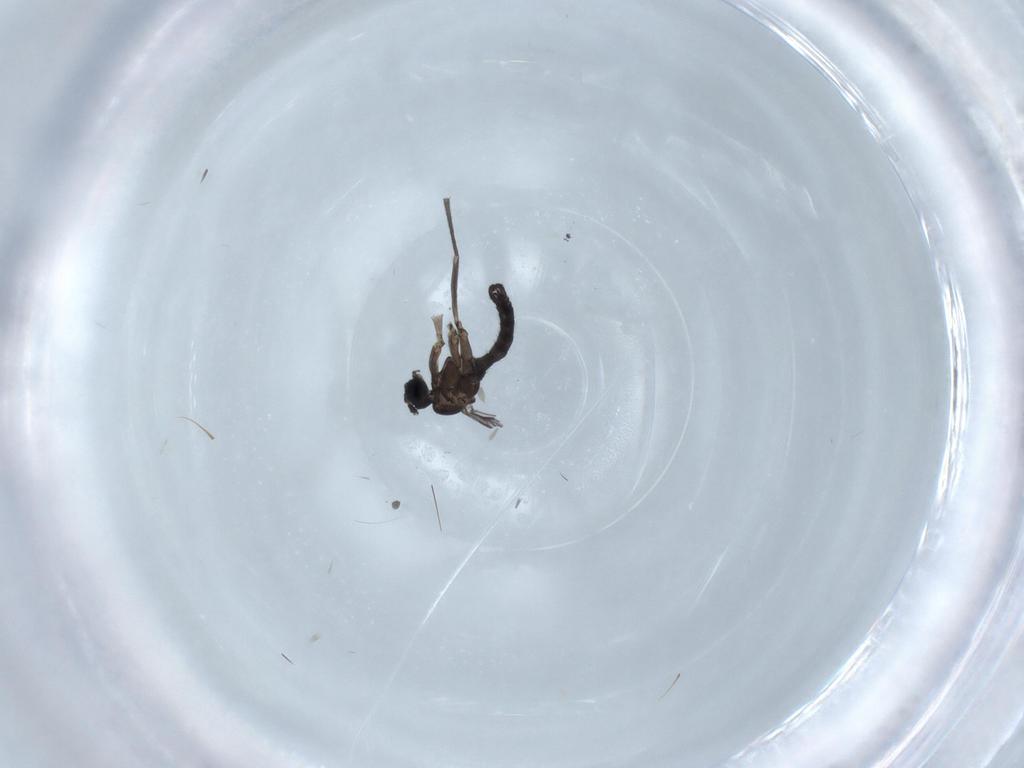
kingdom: Animalia
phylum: Arthropoda
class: Insecta
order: Diptera
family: Sciaridae
